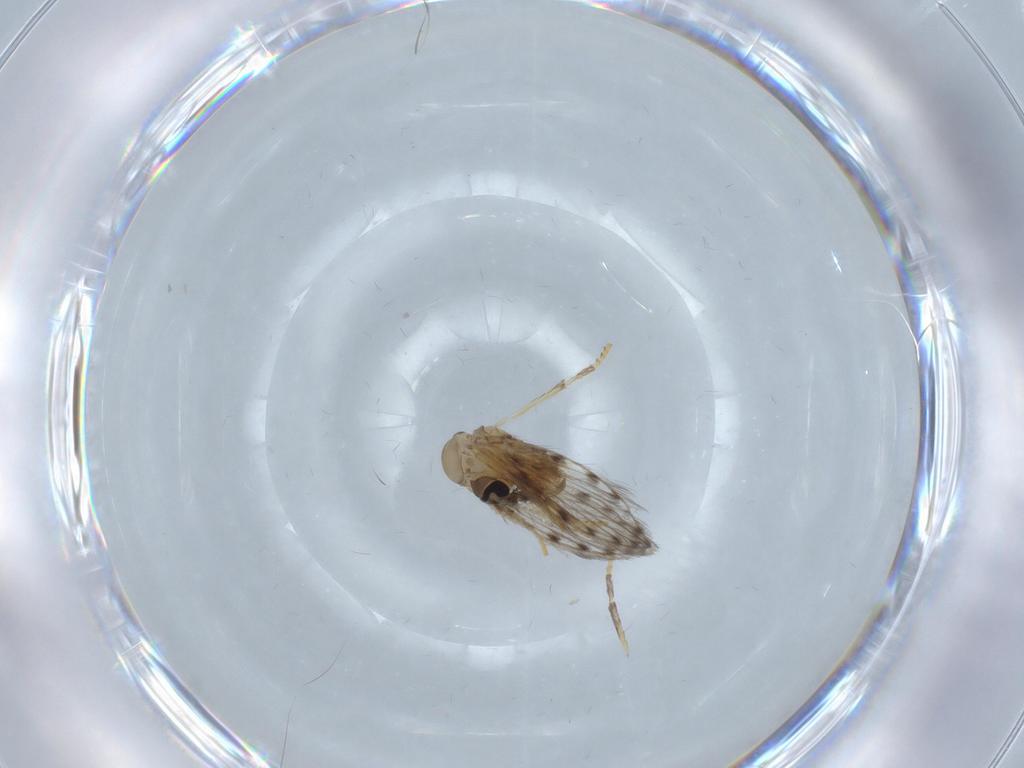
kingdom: Animalia
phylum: Arthropoda
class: Insecta
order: Diptera
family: Sciaridae
